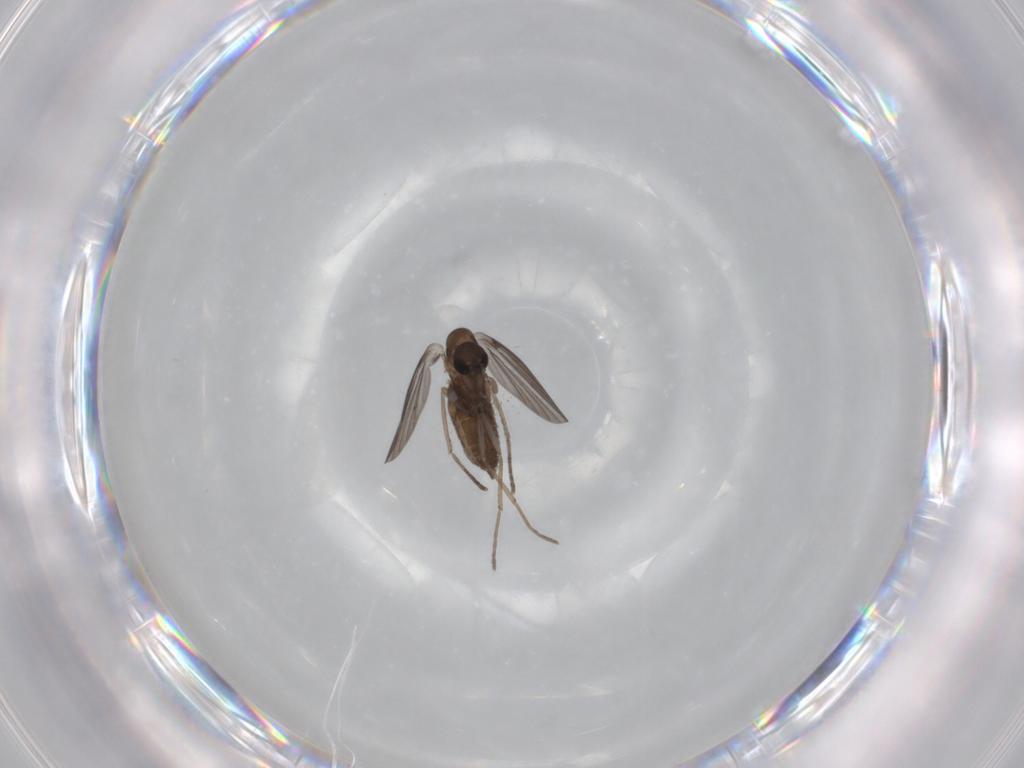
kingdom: Animalia
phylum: Arthropoda
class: Insecta
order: Diptera
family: Psychodidae
